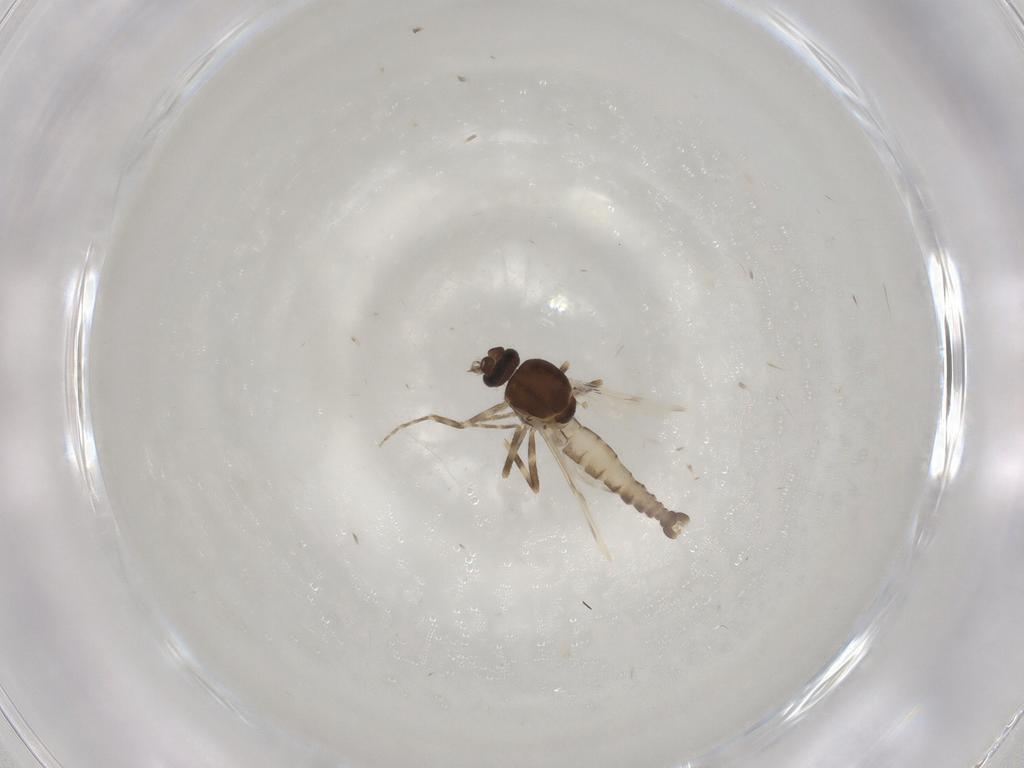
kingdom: Animalia
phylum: Arthropoda
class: Insecta
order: Diptera
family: Ceratopogonidae
